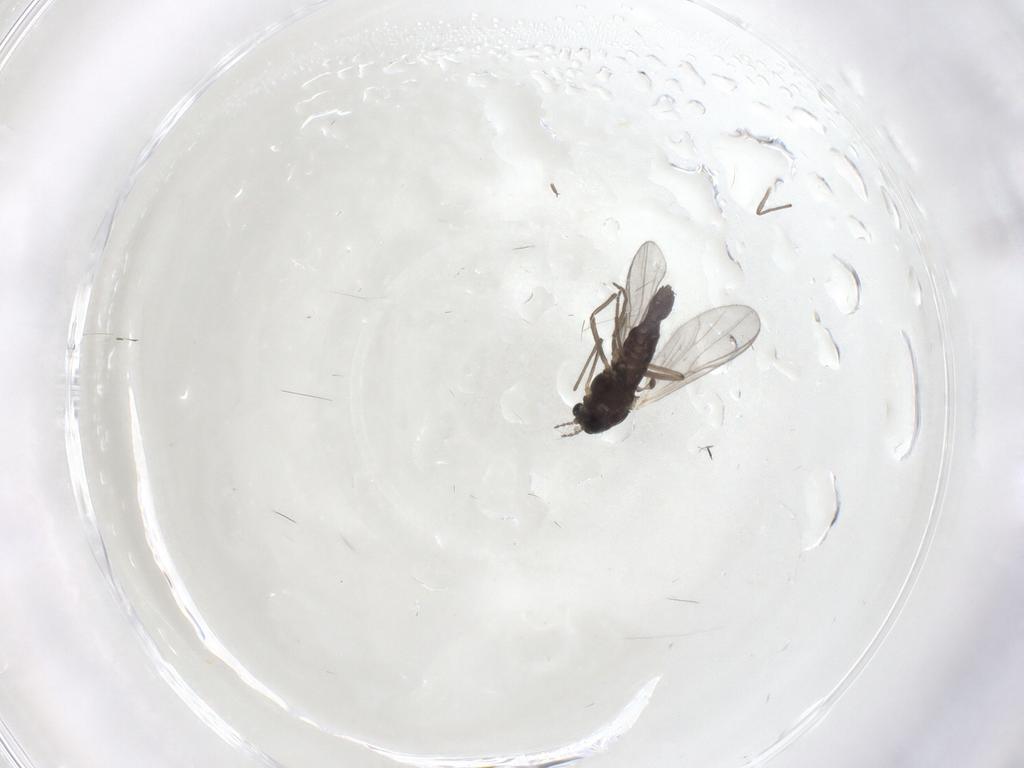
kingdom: Animalia
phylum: Arthropoda
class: Insecta
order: Diptera
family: Chironomidae
